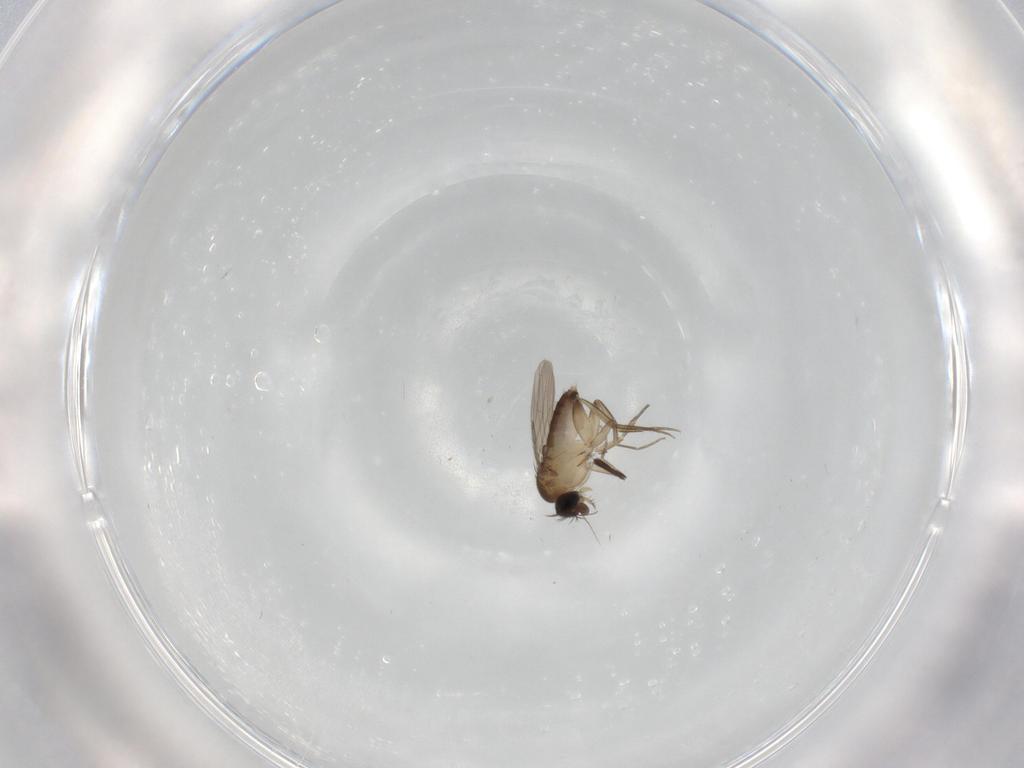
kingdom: Animalia
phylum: Arthropoda
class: Insecta
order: Diptera
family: Phoridae
